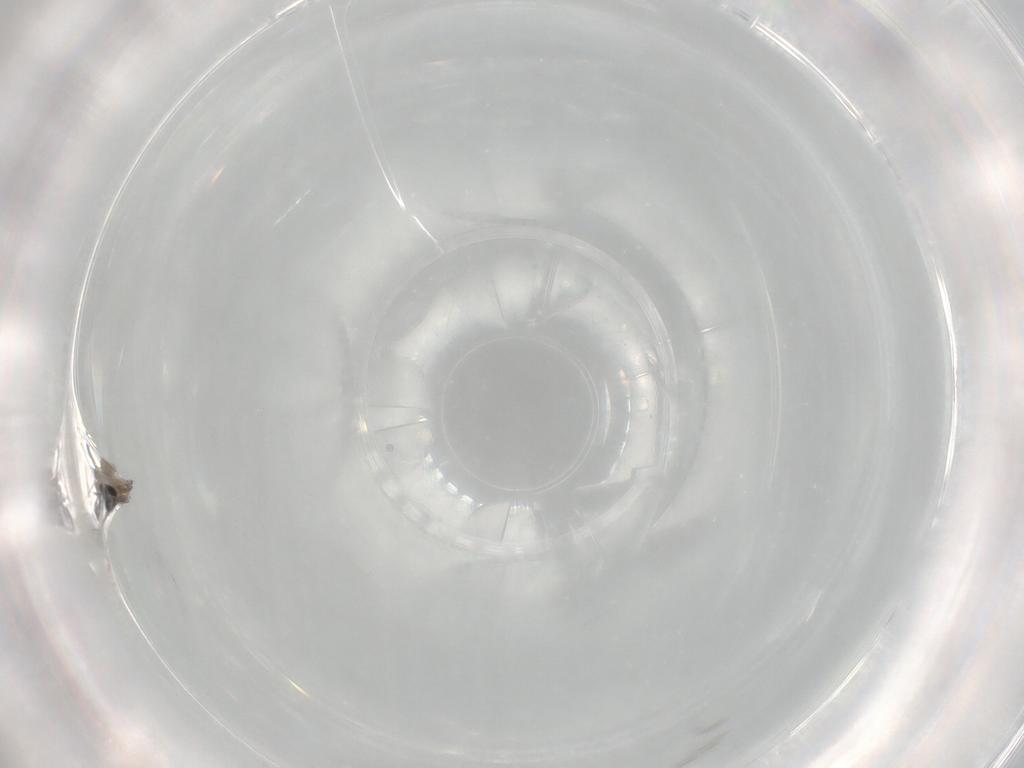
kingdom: Animalia
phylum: Arthropoda
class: Insecta
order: Diptera
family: Cecidomyiidae
